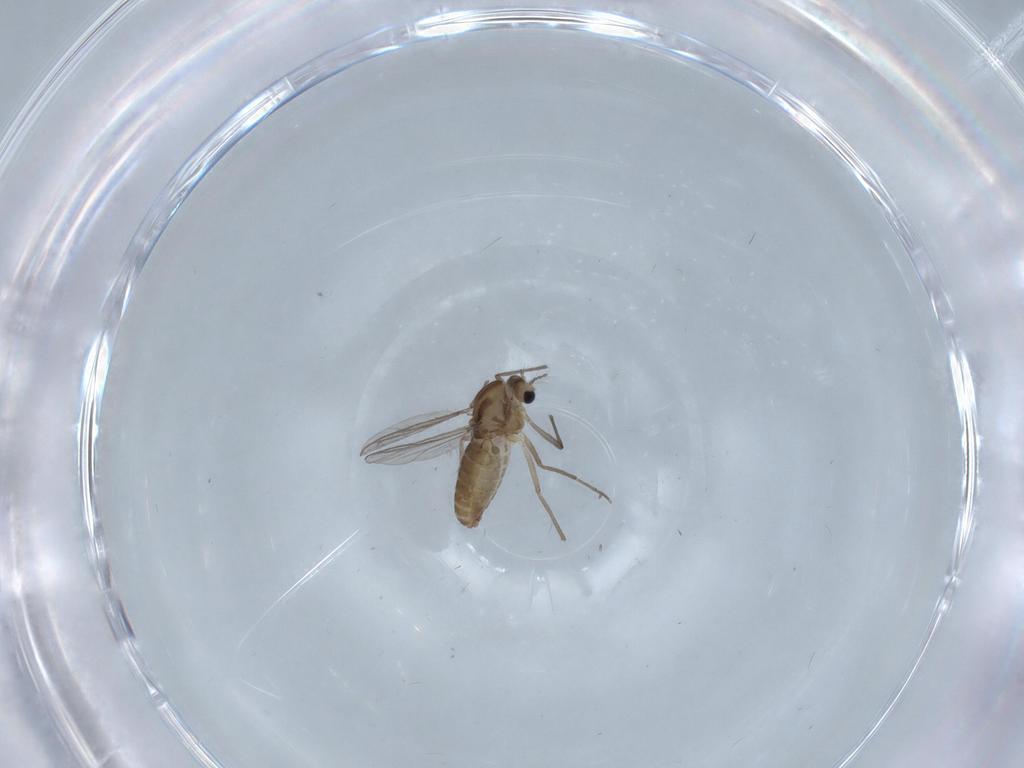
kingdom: Animalia
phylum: Arthropoda
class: Insecta
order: Diptera
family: Chironomidae
